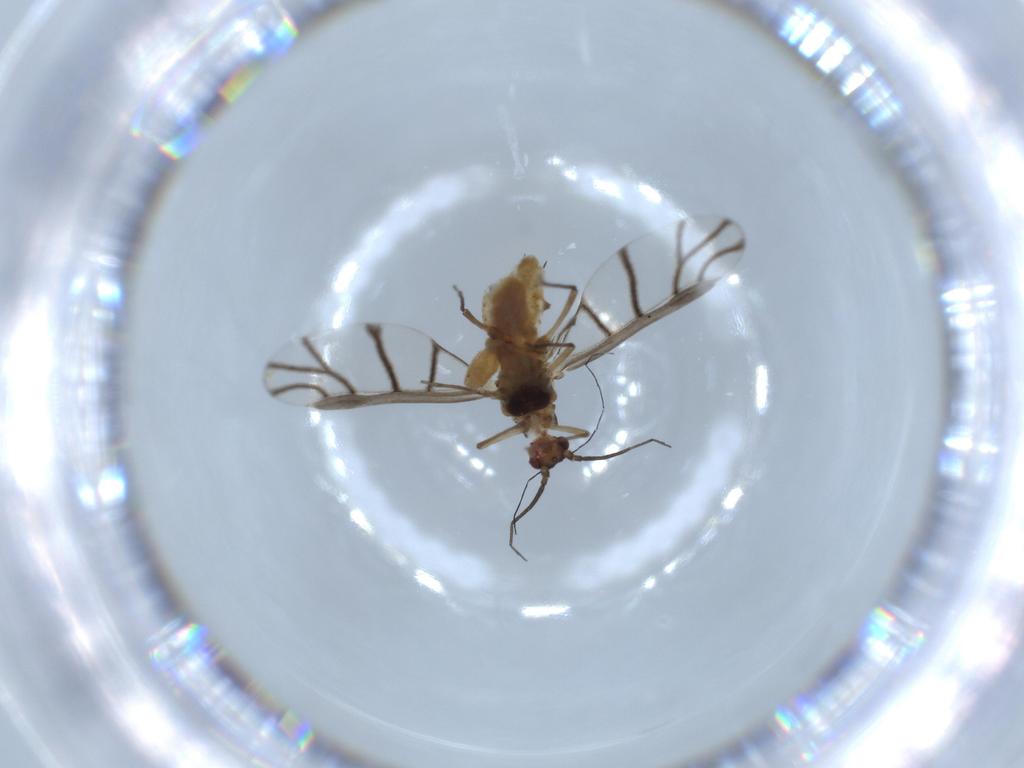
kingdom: Animalia
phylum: Arthropoda
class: Insecta
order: Hemiptera
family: Aphididae
